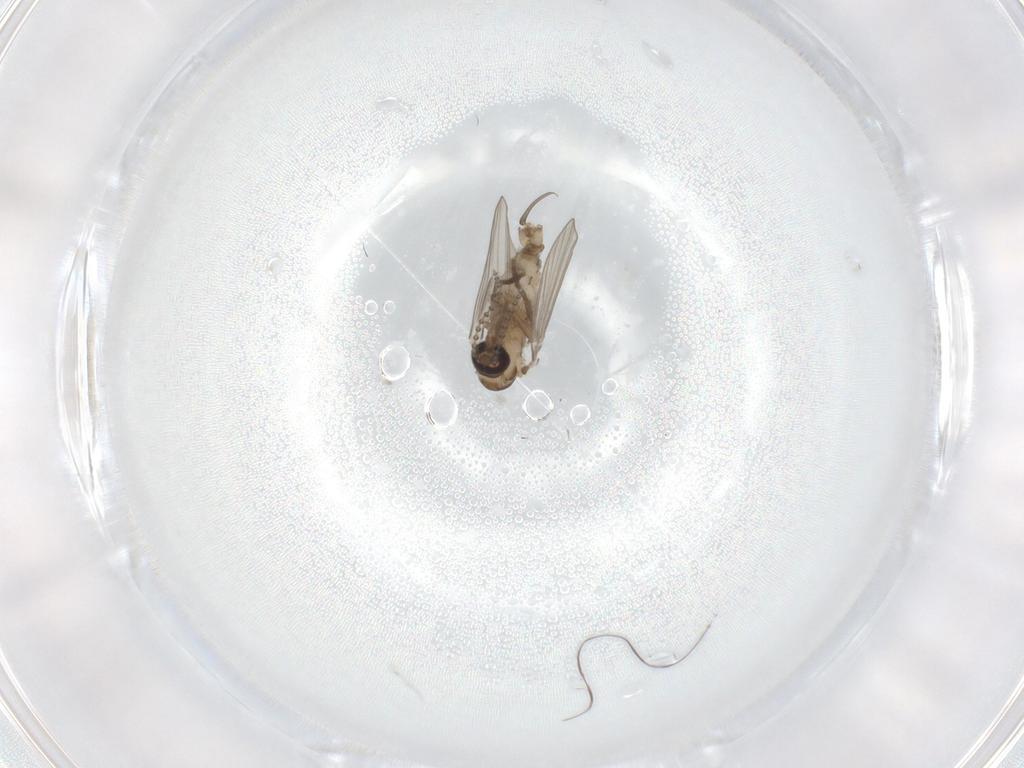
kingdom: Animalia
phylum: Arthropoda
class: Insecta
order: Diptera
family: Psychodidae
